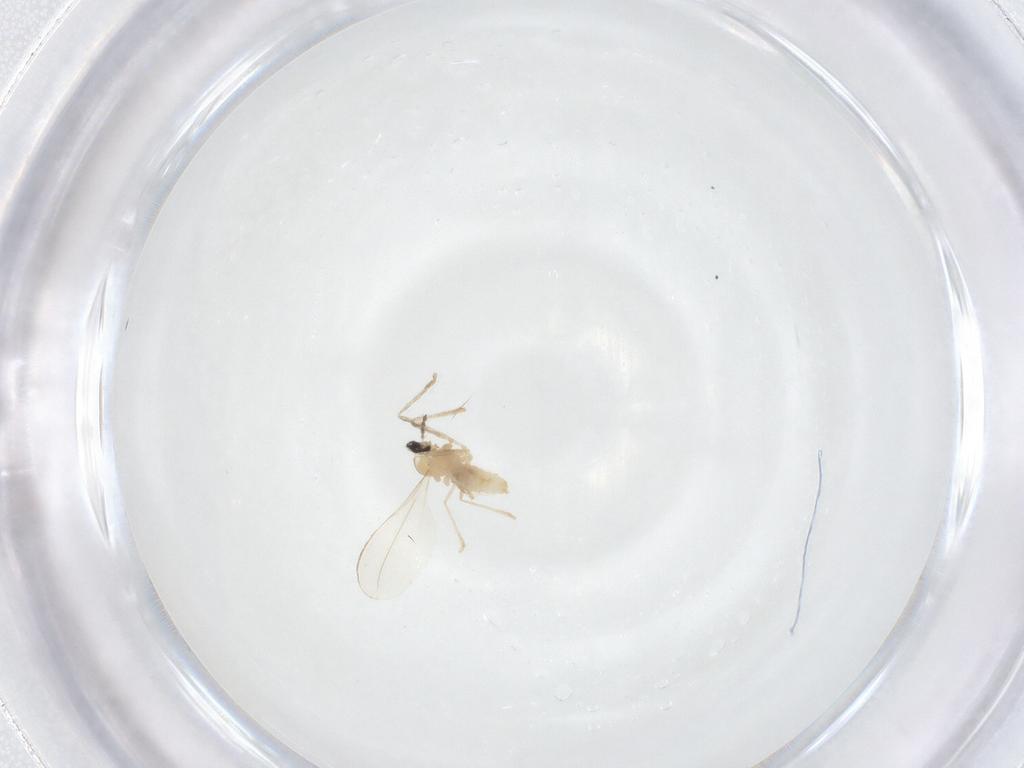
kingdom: Animalia
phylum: Arthropoda
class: Insecta
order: Diptera
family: Cecidomyiidae
